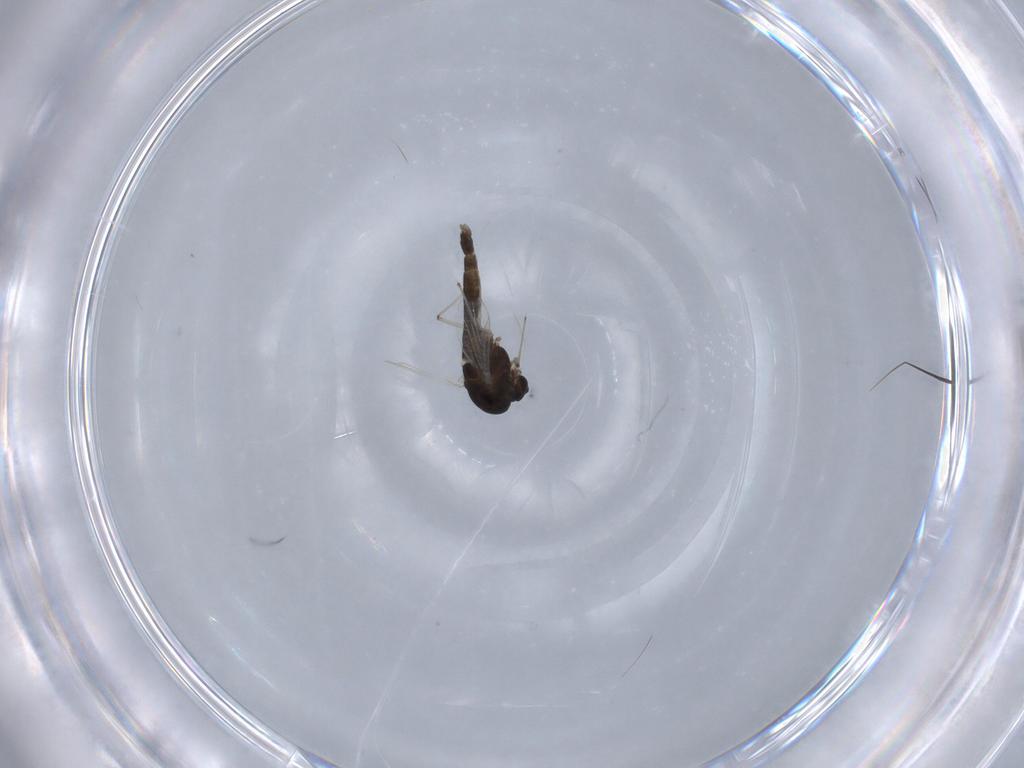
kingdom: Animalia
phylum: Arthropoda
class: Insecta
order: Diptera
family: Chironomidae
